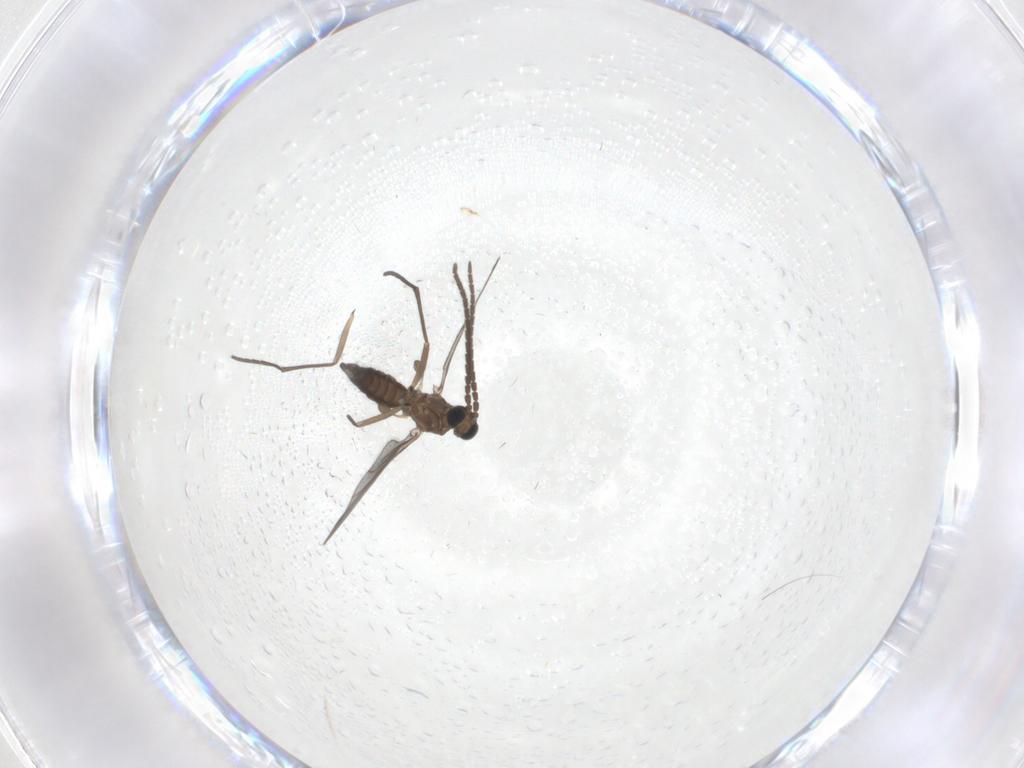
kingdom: Animalia
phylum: Arthropoda
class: Insecta
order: Diptera
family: Sciaridae
